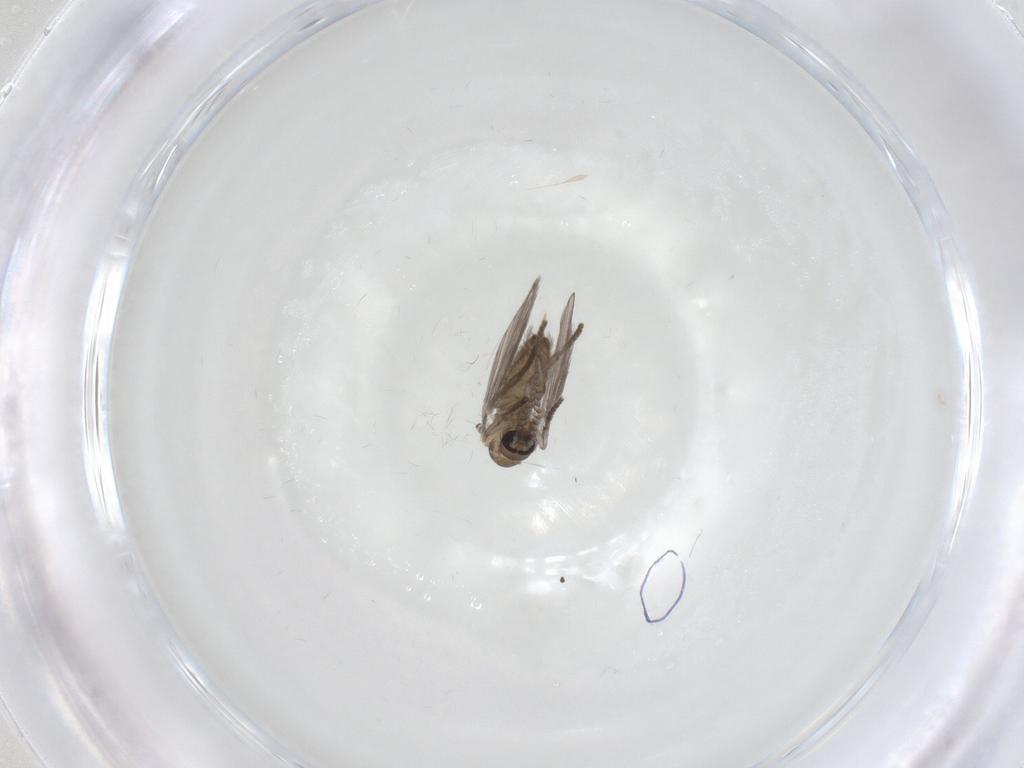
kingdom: Animalia
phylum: Arthropoda
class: Insecta
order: Diptera
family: Psychodidae
